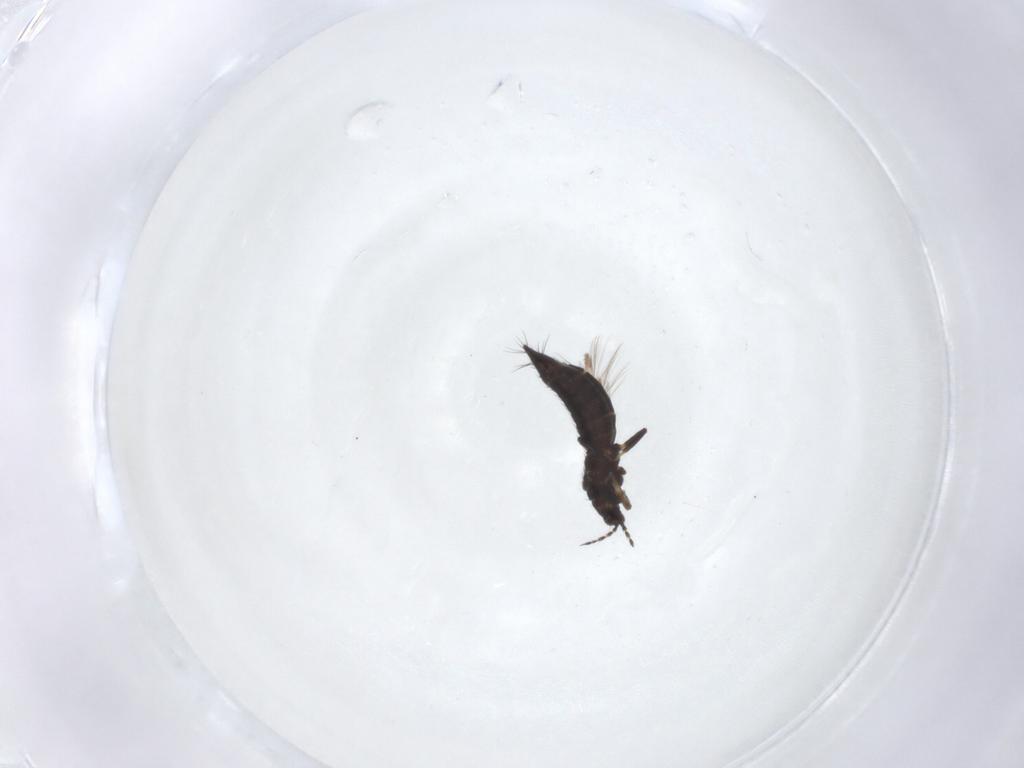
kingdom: Animalia
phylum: Arthropoda
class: Insecta
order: Thysanoptera
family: Thripidae
